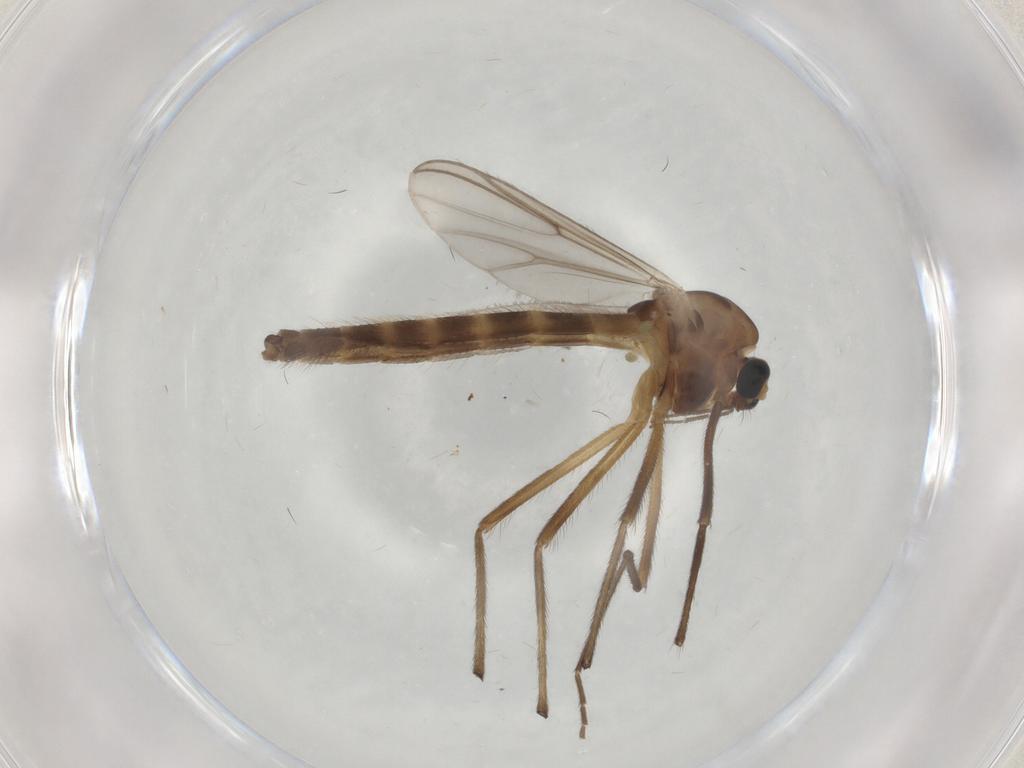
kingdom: Animalia
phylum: Arthropoda
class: Insecta
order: Diptera
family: Chironomidae
